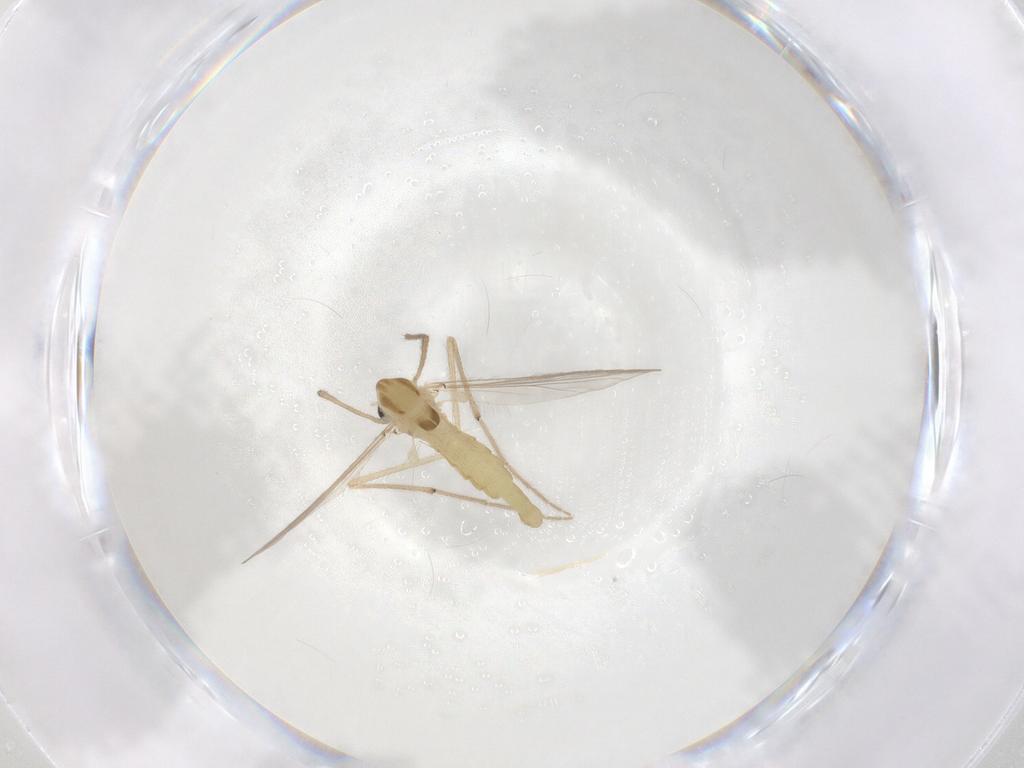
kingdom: Animalia
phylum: Arthropoda
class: Insecta
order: Diptera
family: Chironomidae
